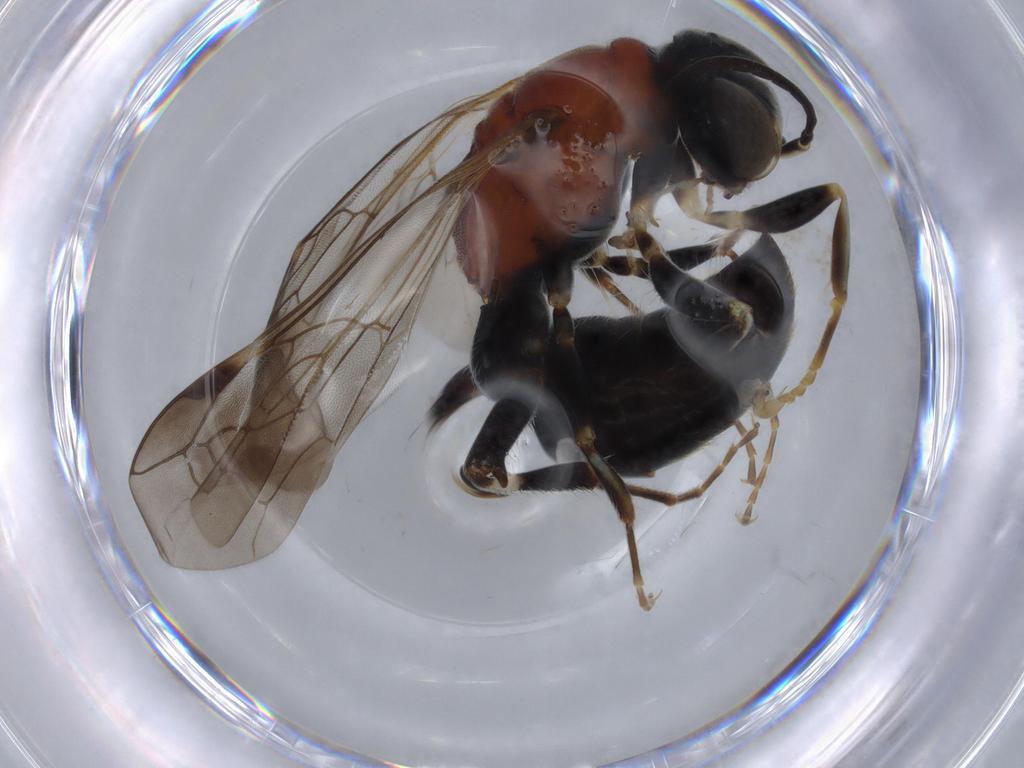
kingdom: Animalia
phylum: Arthropoda
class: Insecta
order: Hymenoptera
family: Bembicidae
